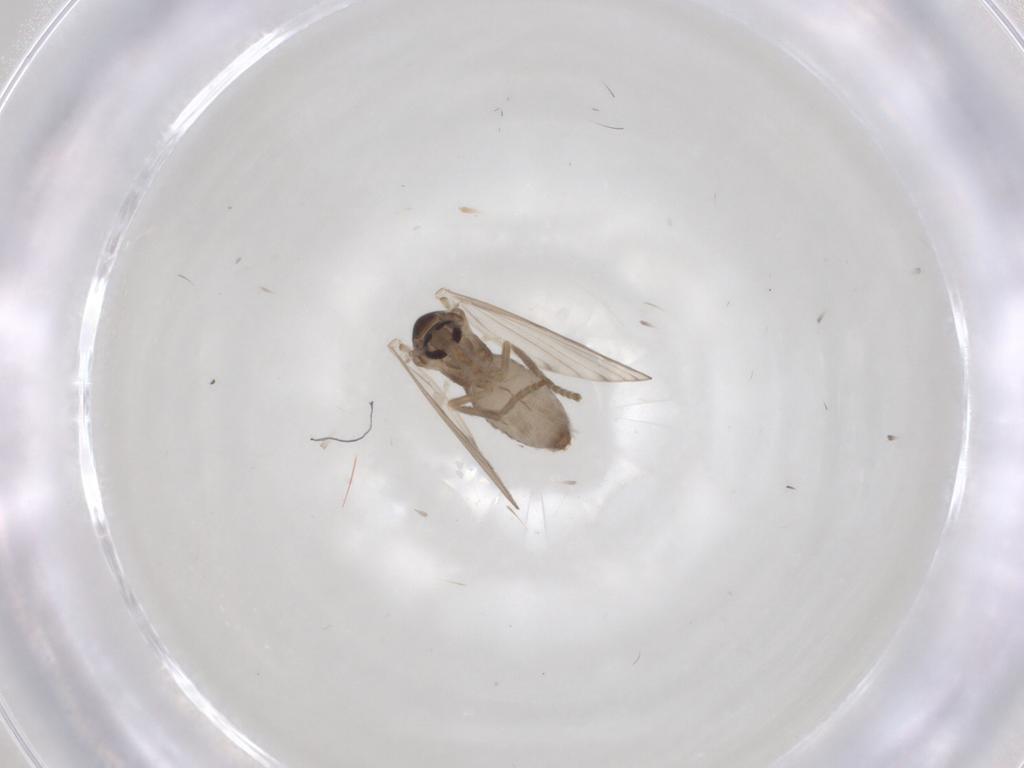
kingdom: Animalia
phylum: Arthropoda
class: Insecta
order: Diptera
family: Psychodidae
